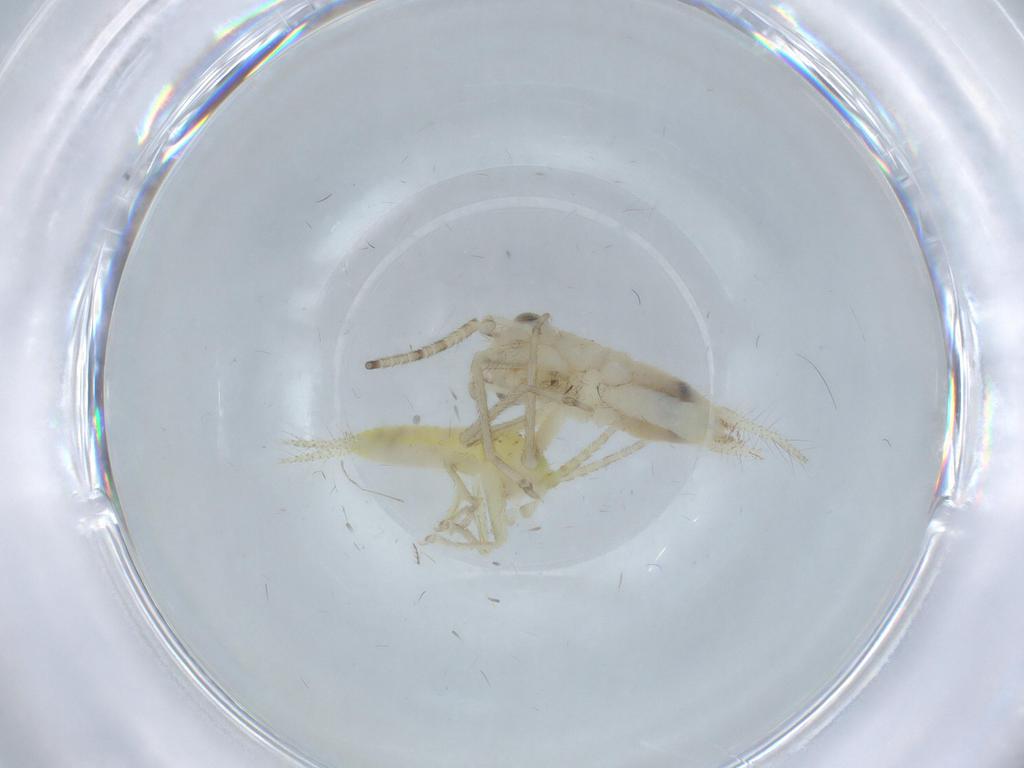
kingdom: Animalia
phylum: Arthropoda
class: Insecta
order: Orthoptera
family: Trigonidiidae
